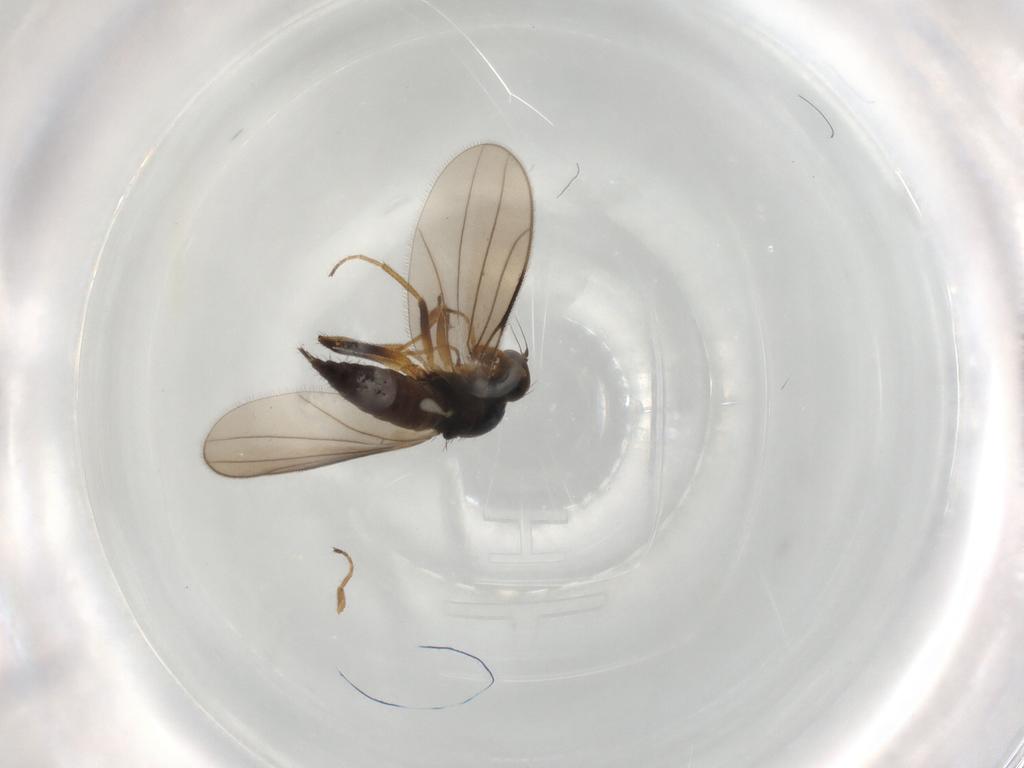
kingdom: Animalia
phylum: Arthropoda
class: Insecta
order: Diptera
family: Hybotidae
